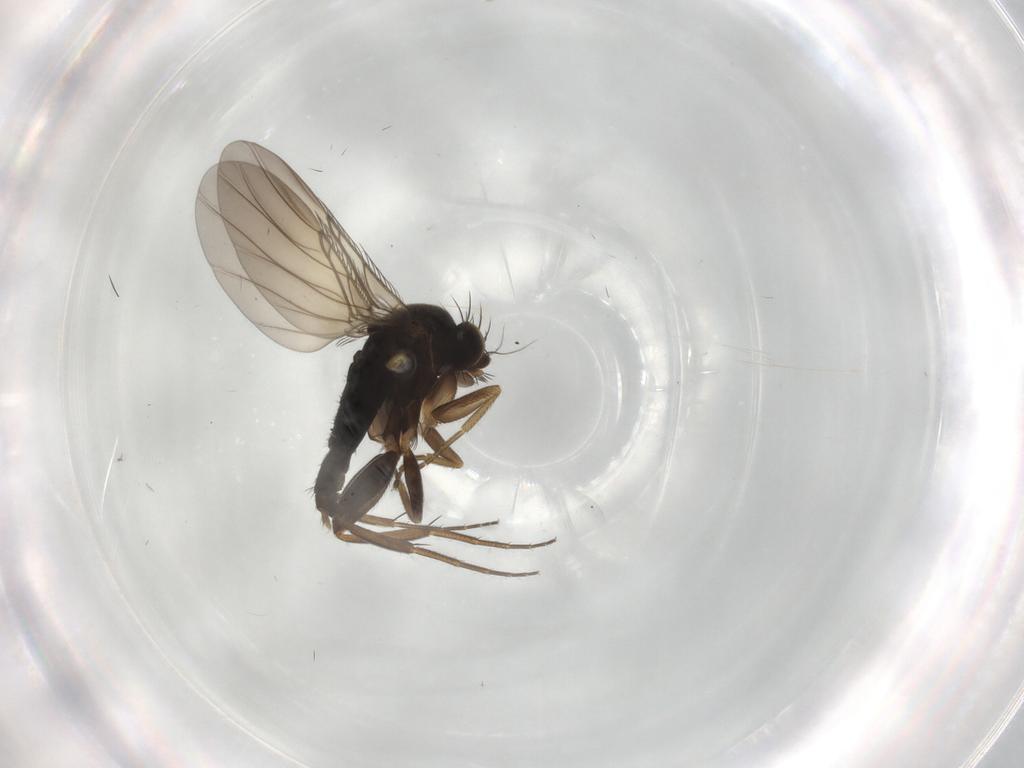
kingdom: Animalia
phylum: Arthropoda
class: Insecta
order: Diptera
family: Phoridae
